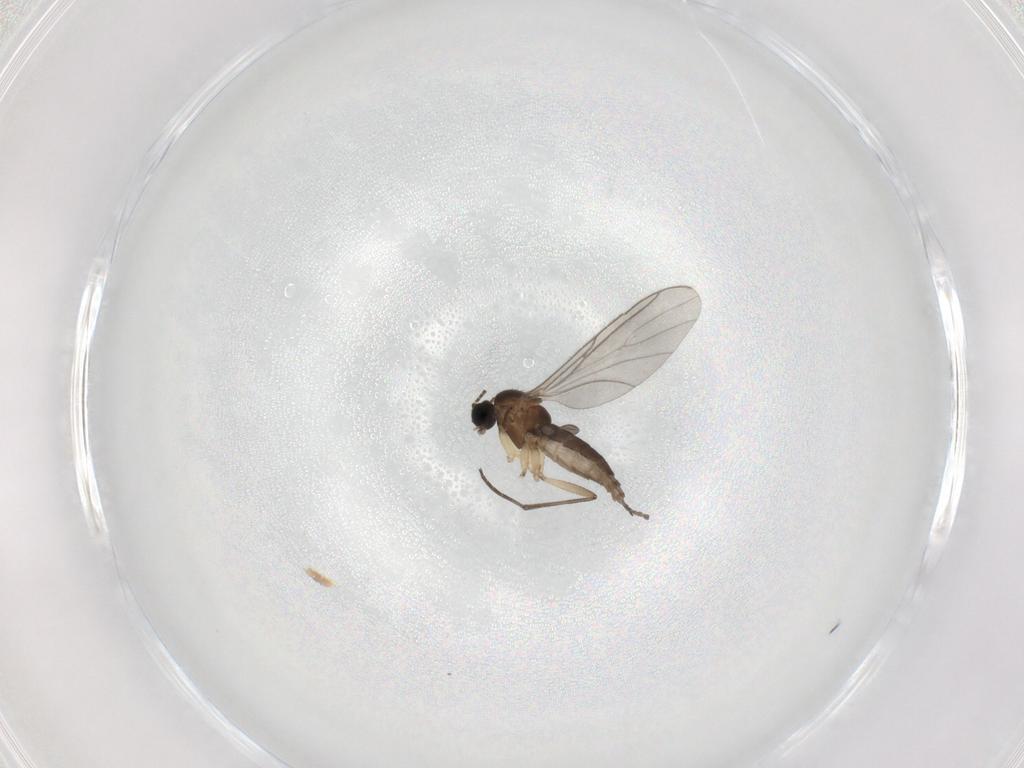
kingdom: Animalia
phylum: Arthropoda
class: Insecta
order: Diptera
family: Sciaridae
